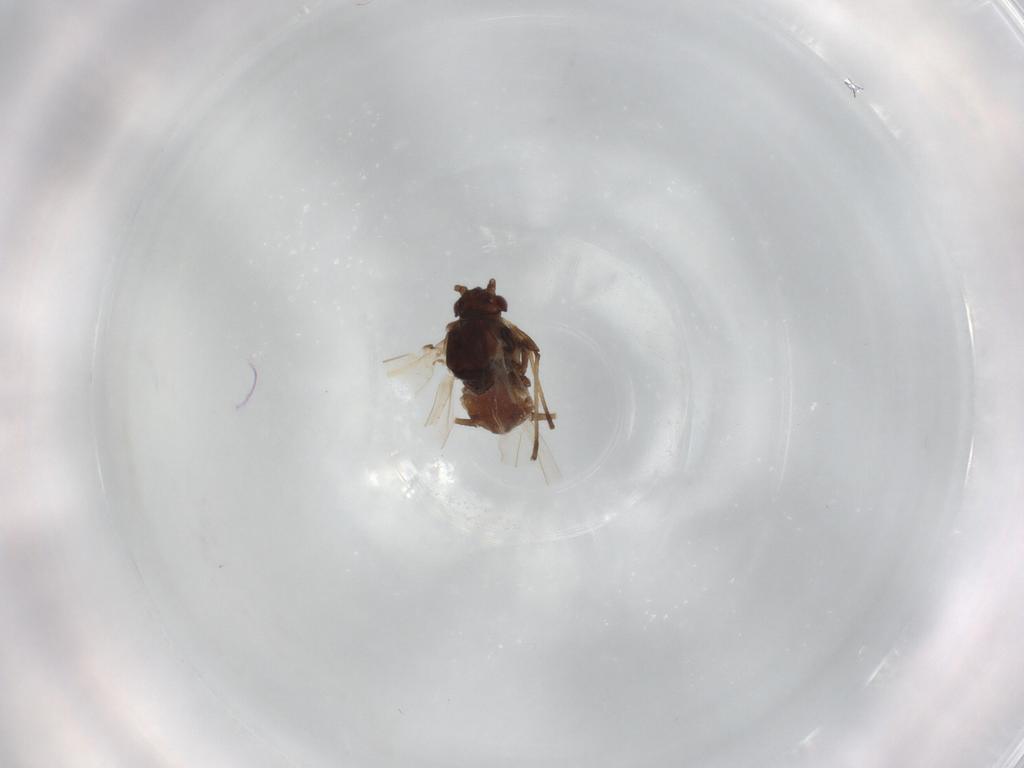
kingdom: Animalia
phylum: Arthropoda
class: Insecta
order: Hemiptera
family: Aphididae
